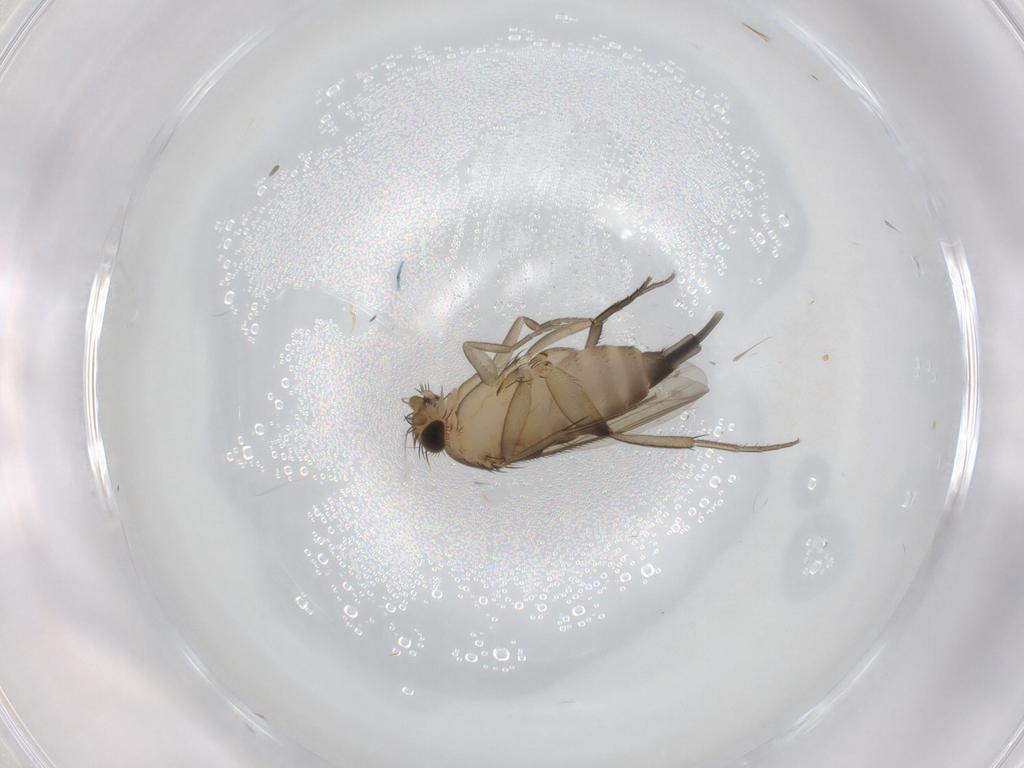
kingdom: Animalia
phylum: Arthropoda
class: Insecta
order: Diptera
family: Phoridae
